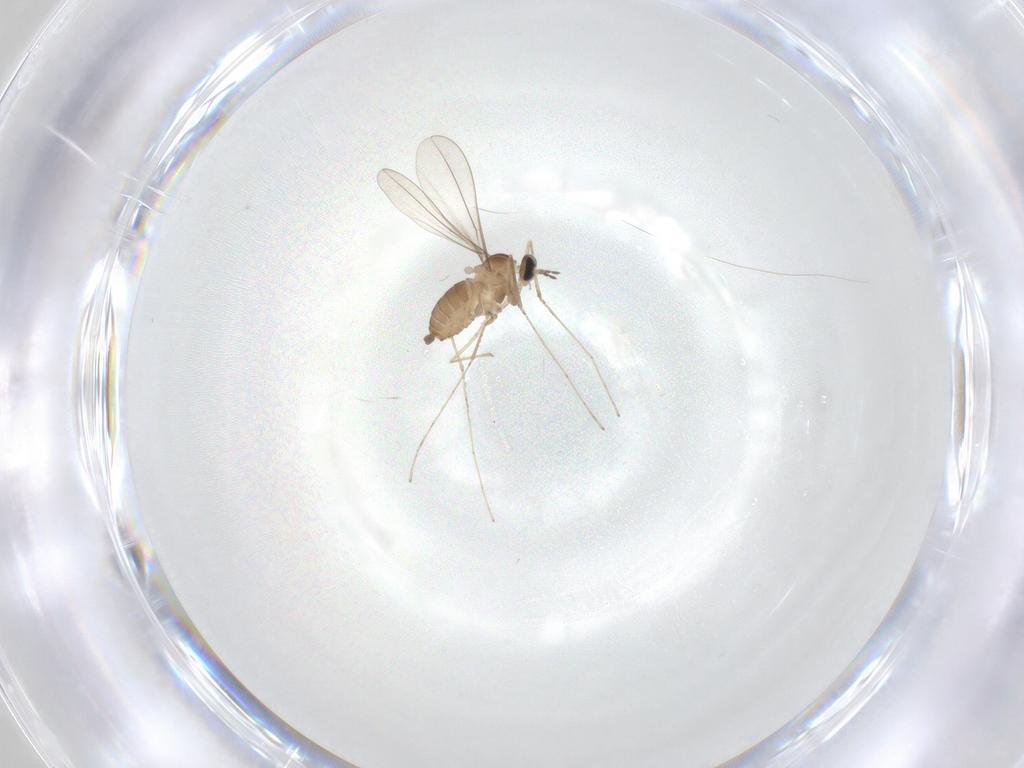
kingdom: Animalia
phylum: Arthropoda
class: Insecta
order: Diptera
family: Cecidomyiidae
